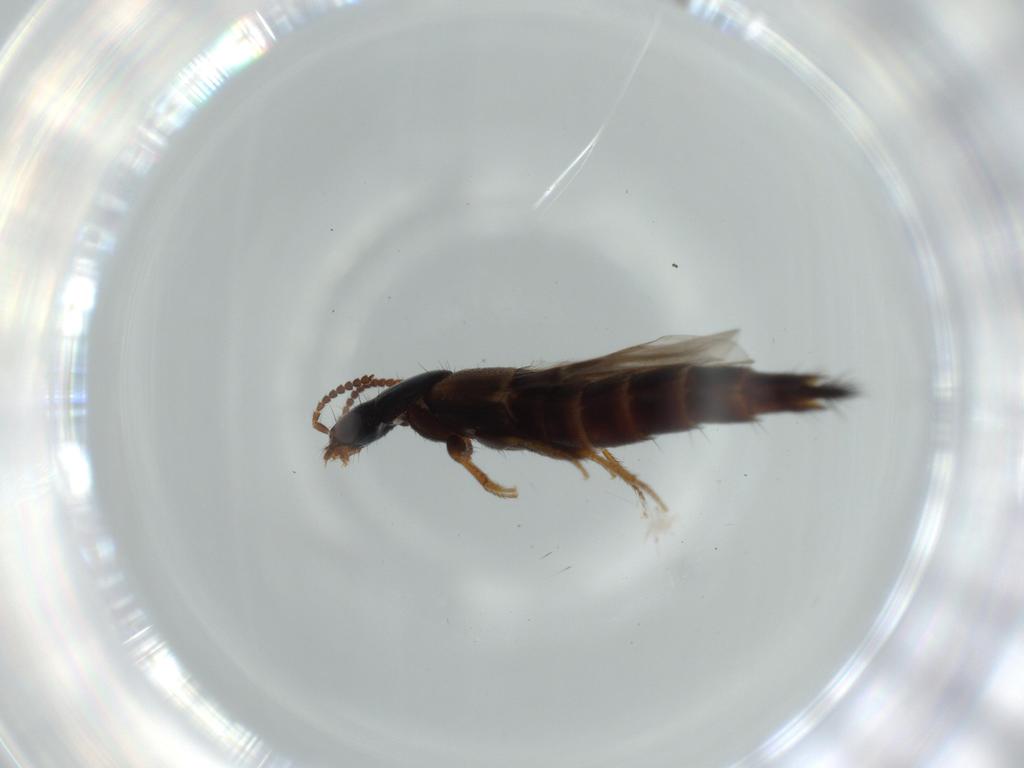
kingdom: Animalia
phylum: Arthropoda
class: Insecta
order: Coleoptera
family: Staphylinidae
